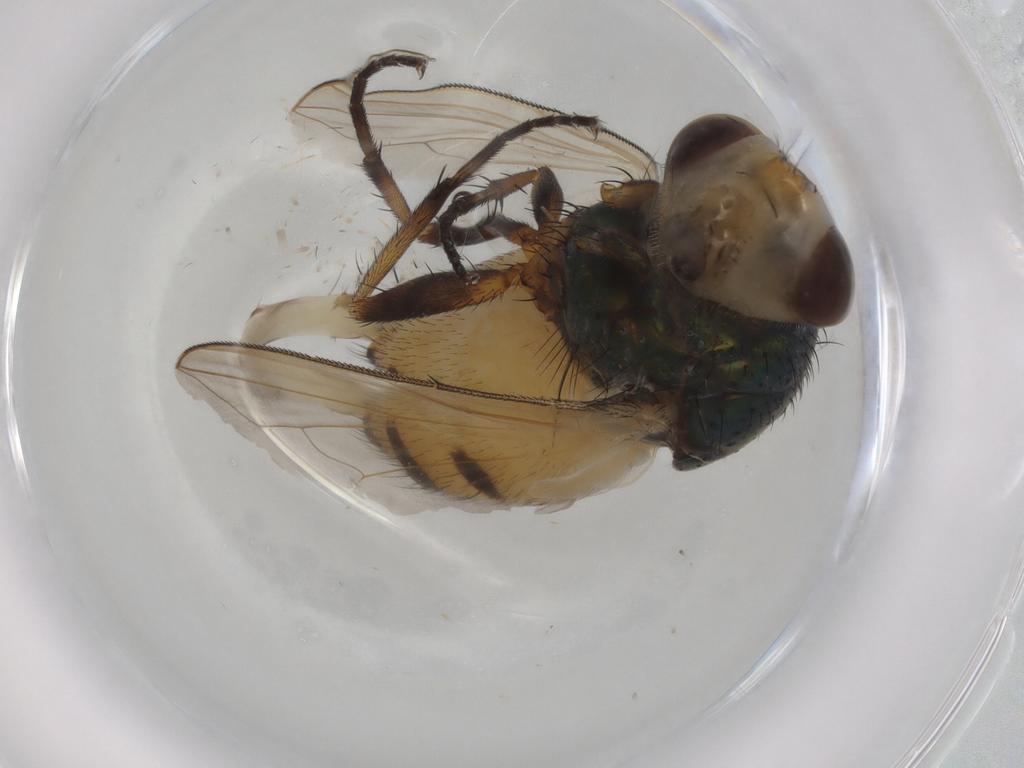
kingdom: Animalia
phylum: Arthropoda
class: Insecta
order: Diptera
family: Calliphoridae
